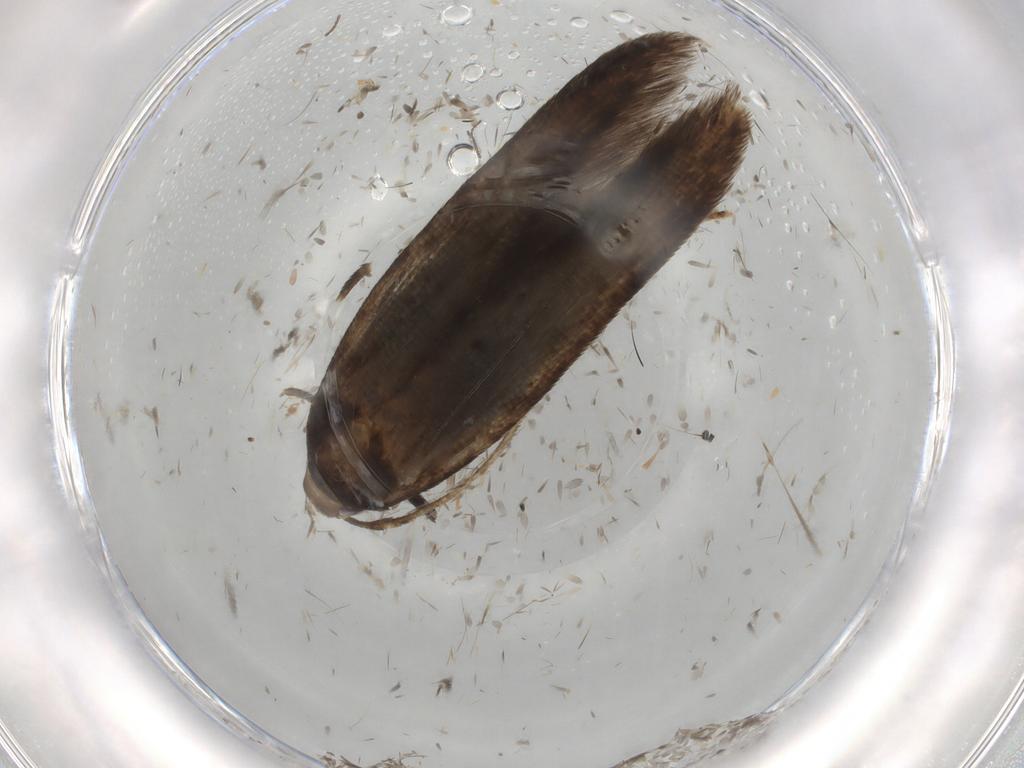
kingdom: Animalia
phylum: Arthropoda
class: Insecta
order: Lepidoptera
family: Cosmopterigidae
